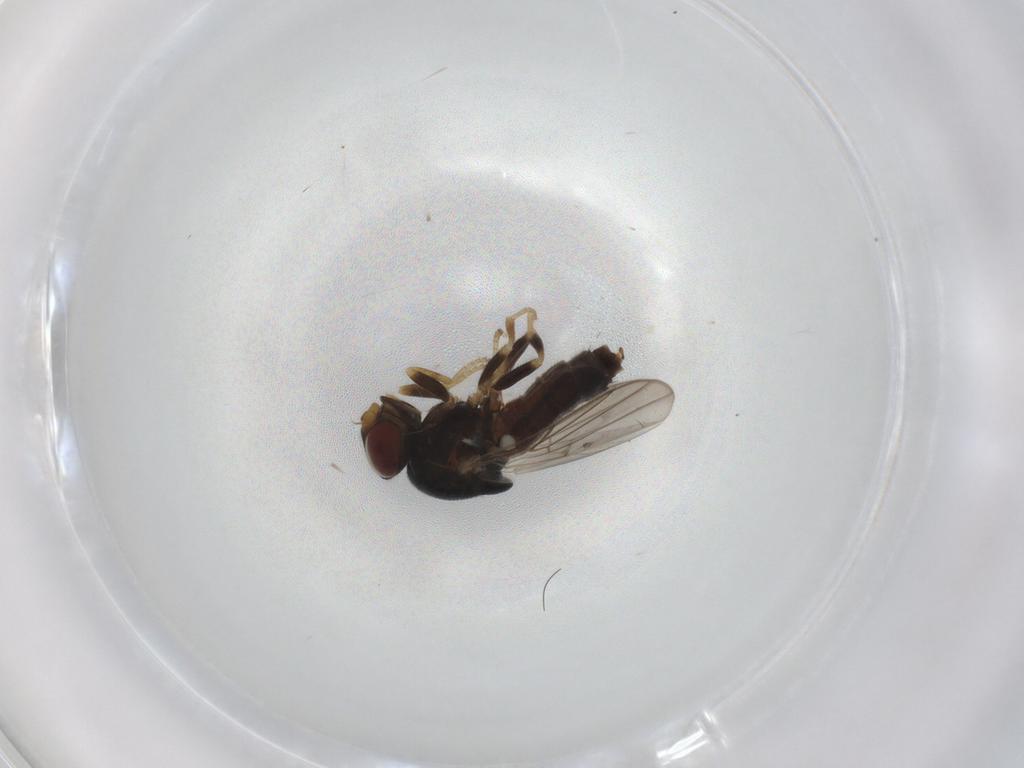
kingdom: Animalia
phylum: Arthropoda
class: Insecta
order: Diptera
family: Chloropidae
